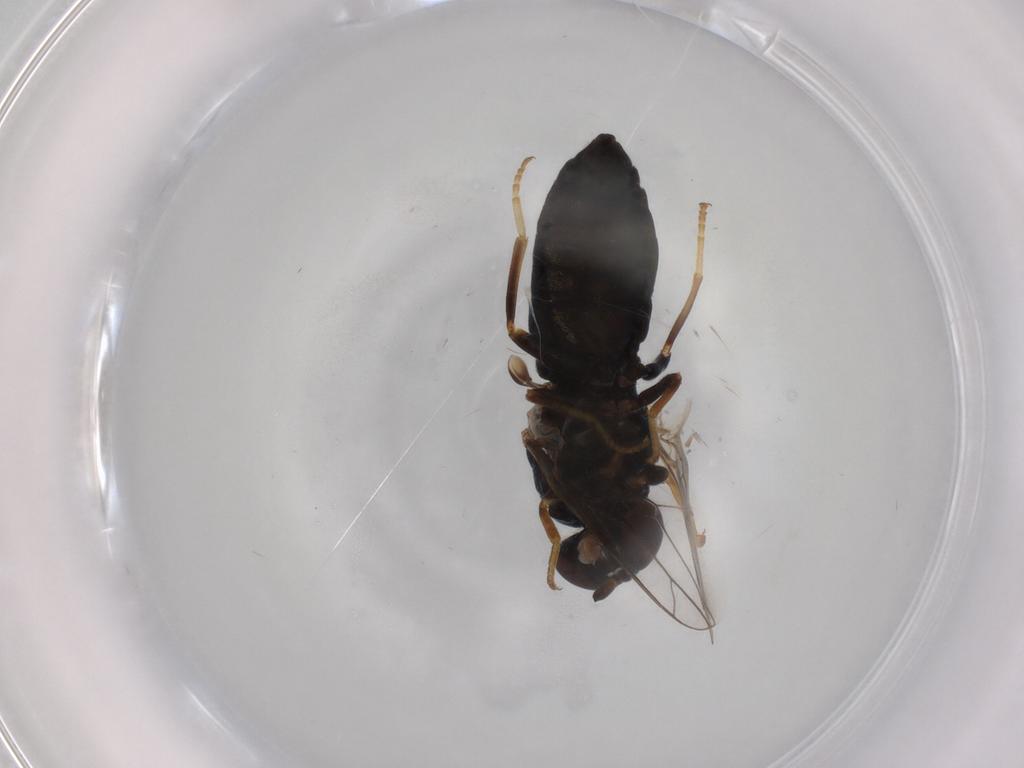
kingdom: Animalia
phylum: Arthropoda
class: Insecta
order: Diptera
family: Scenopinidae
